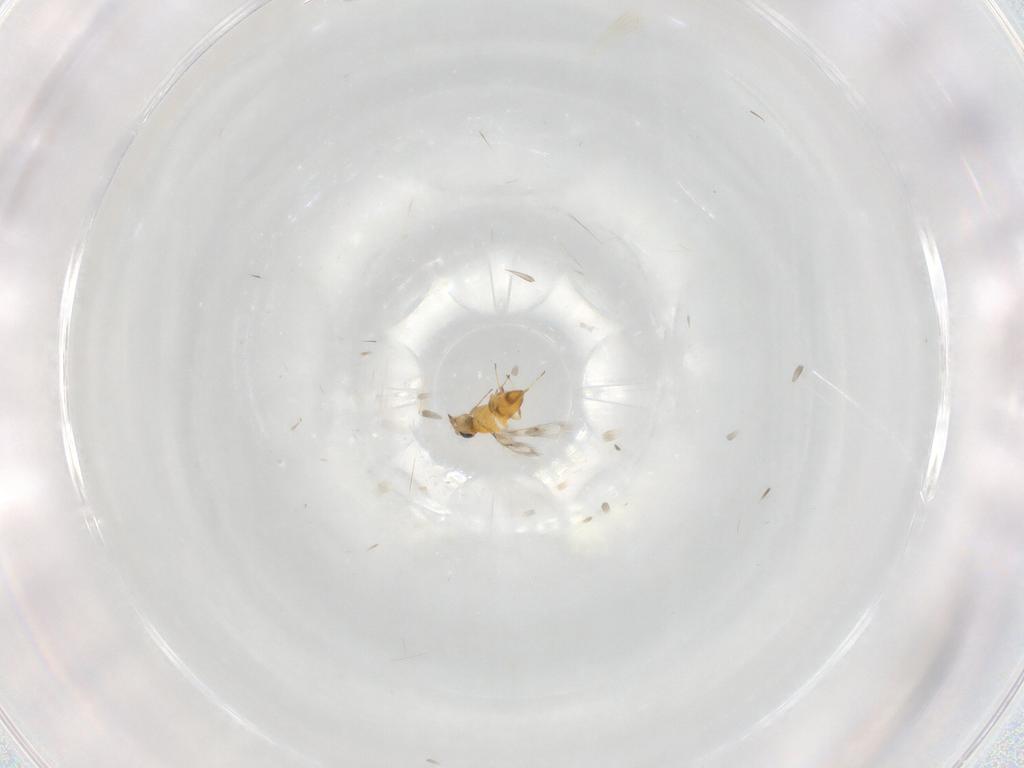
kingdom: Animalia
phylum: Arthropoda
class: Insecta
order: Hymenoptera
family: Aphelinidae
